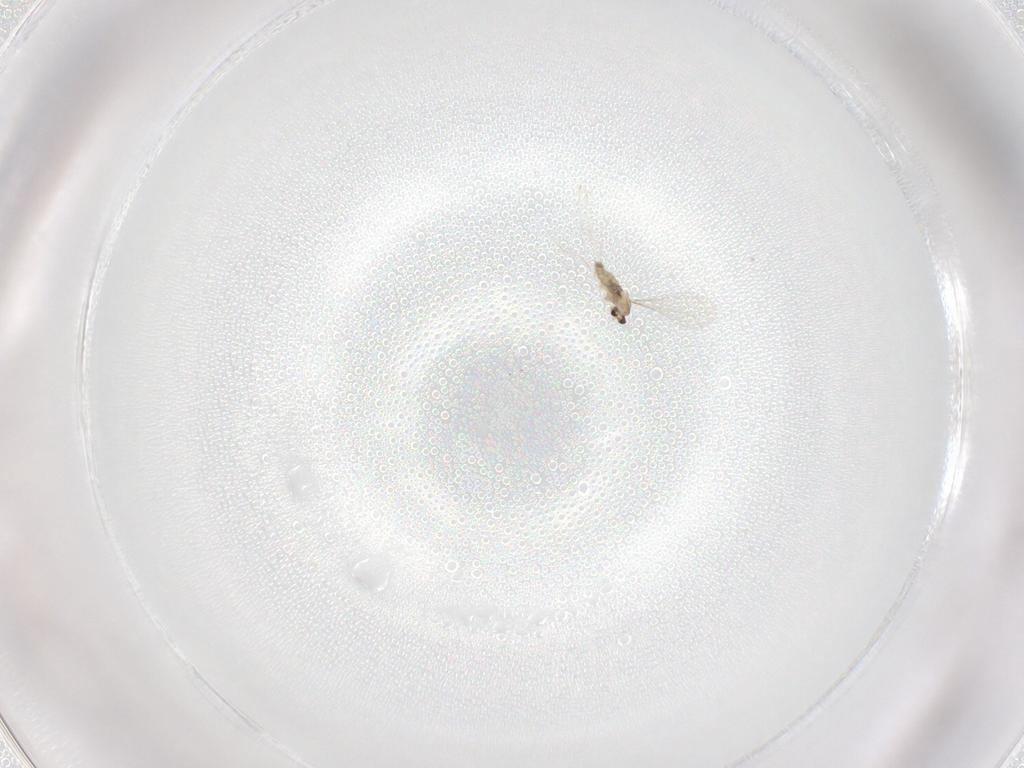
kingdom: Animalia
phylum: Arthropoda
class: Insecta
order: Diptera
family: Cecidomyiidae
